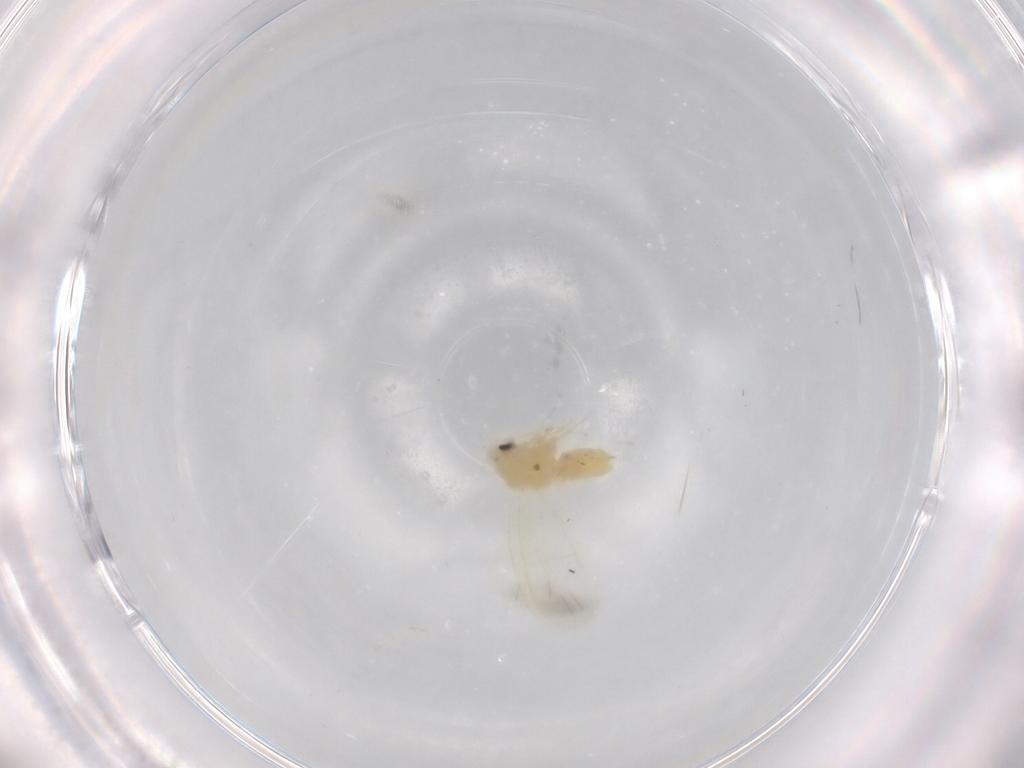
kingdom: Animalia
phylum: Arthropoda
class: Insecta
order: Hemiptera
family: Aleyrodidae
